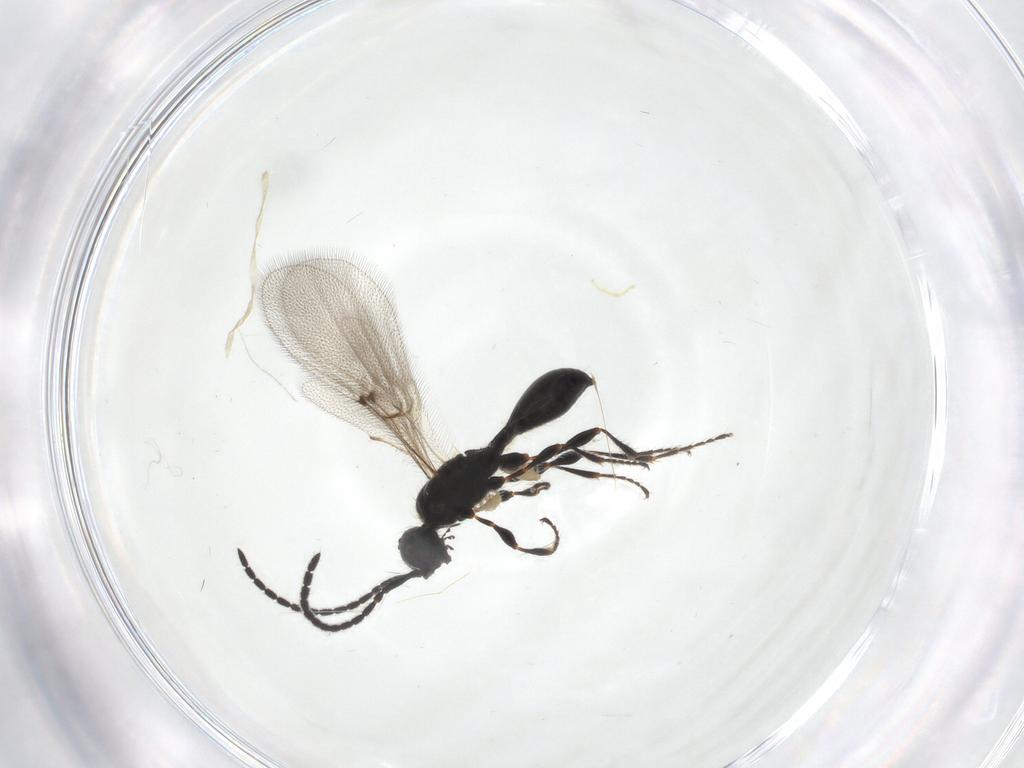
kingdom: Animalia
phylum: Arthropoda
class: Insecta
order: Hymenoptera
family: Diapriidae
